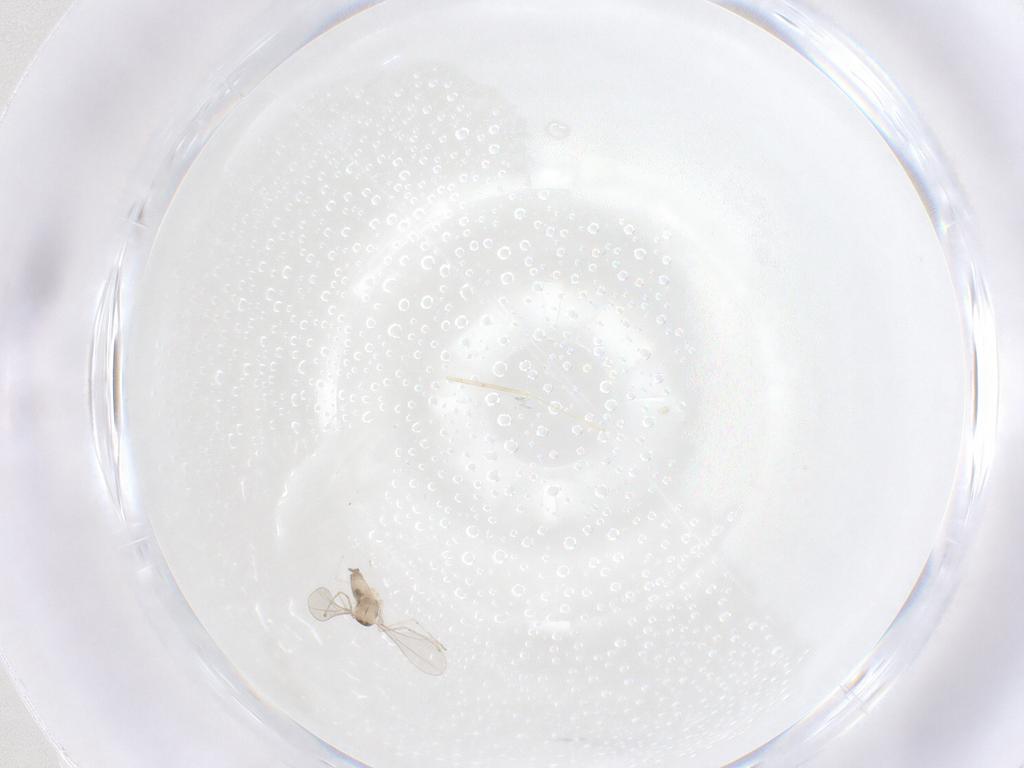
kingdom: Animalia
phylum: Arthropoda
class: Insecta
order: Diptera
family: Cecidomyiidae
